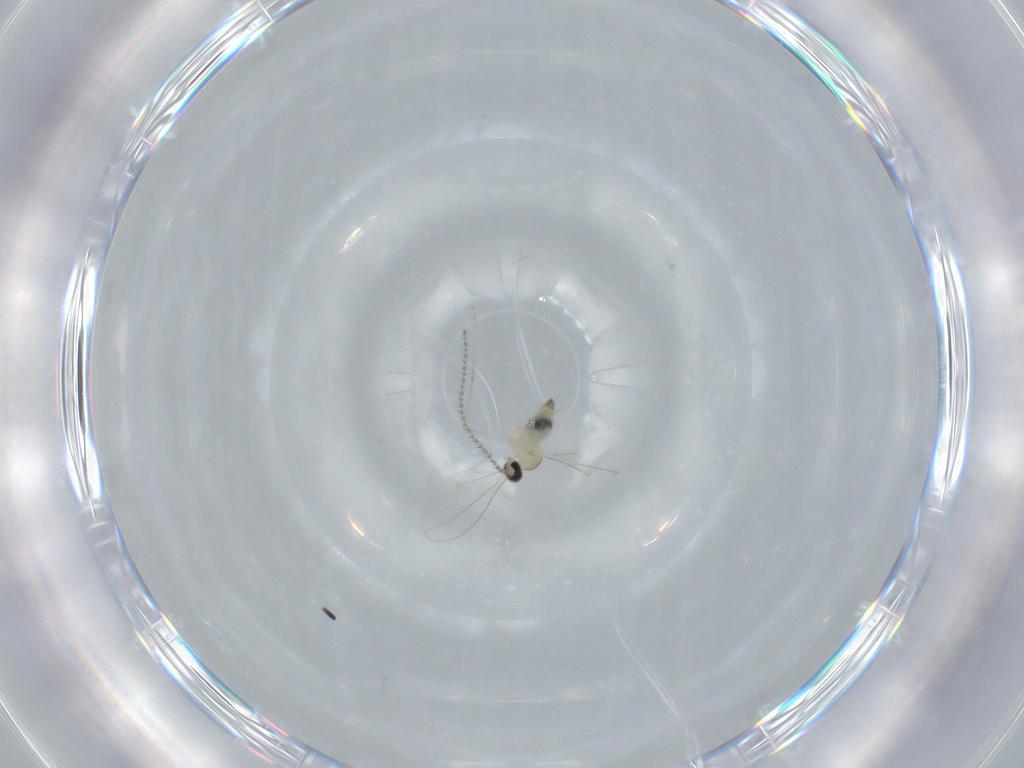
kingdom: Animalia
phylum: Arthropoda
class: Insecta
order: Diptera
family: Cecidomyiidae
